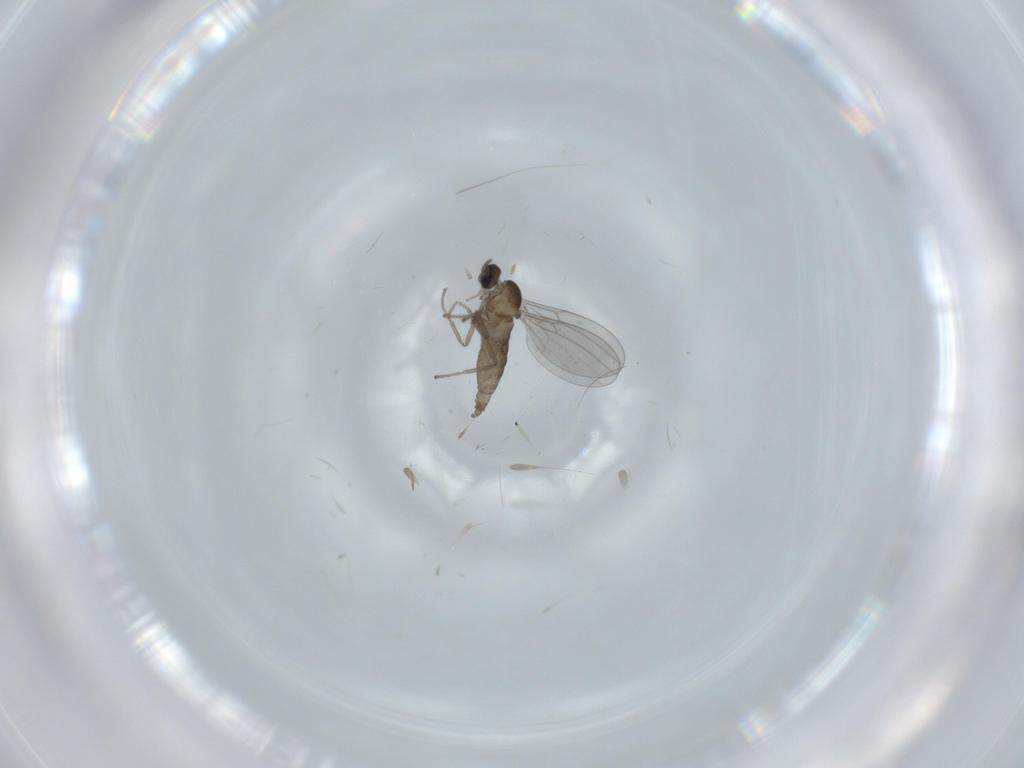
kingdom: Animalia
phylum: Arthropoda
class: Insecta
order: Diptera
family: Cecidomyiidae
